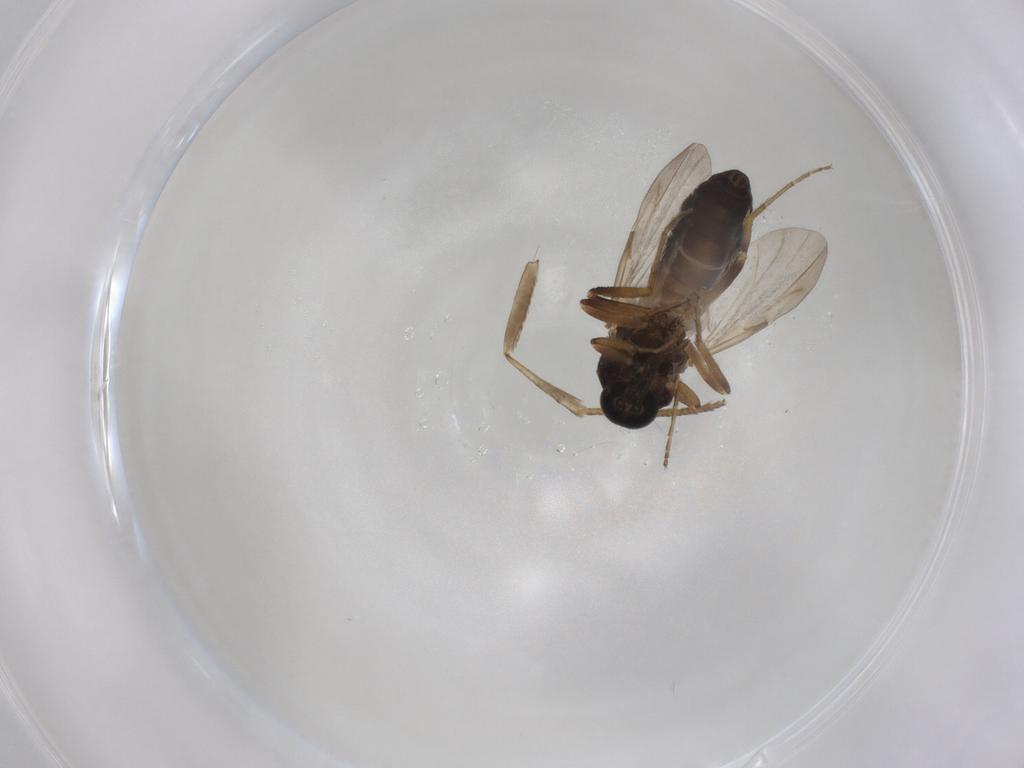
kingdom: Animalia
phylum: Arthropoda
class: Insecta
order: Diptera
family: Ceratopogonidae
